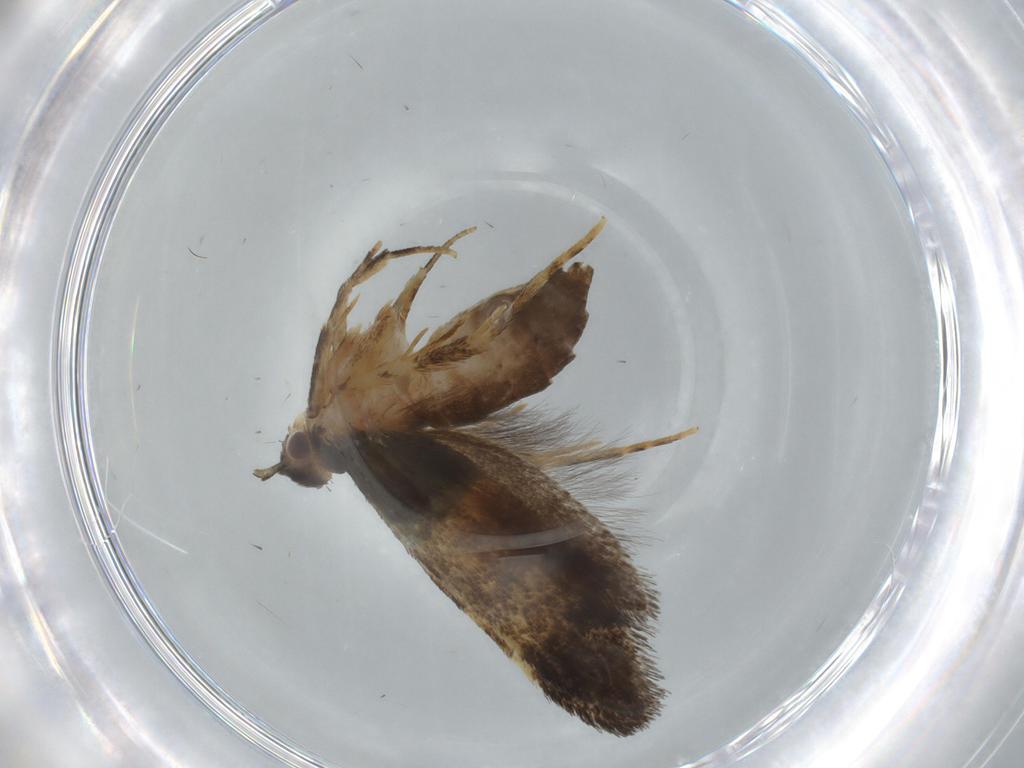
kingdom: Animalia
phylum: Arthropoda
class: Insecta
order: Lepidoptera
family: Cosmopterigidae
